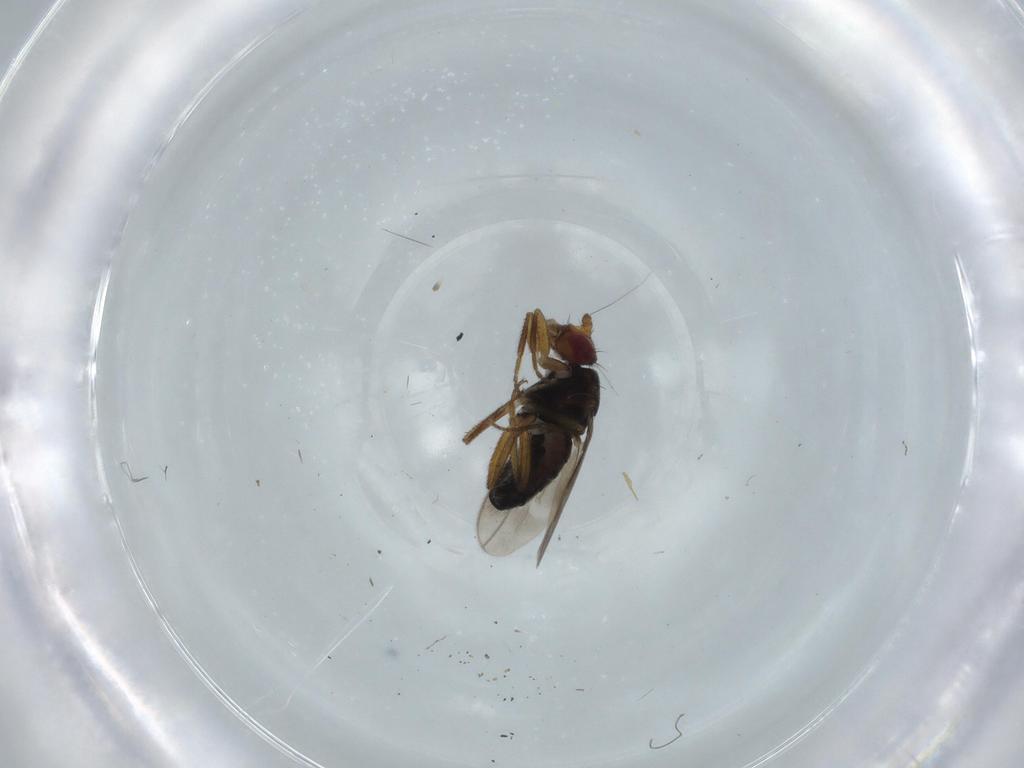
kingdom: Animalia
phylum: Arthropoda
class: Insecta
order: Diptera
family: Sphaeroceridae
